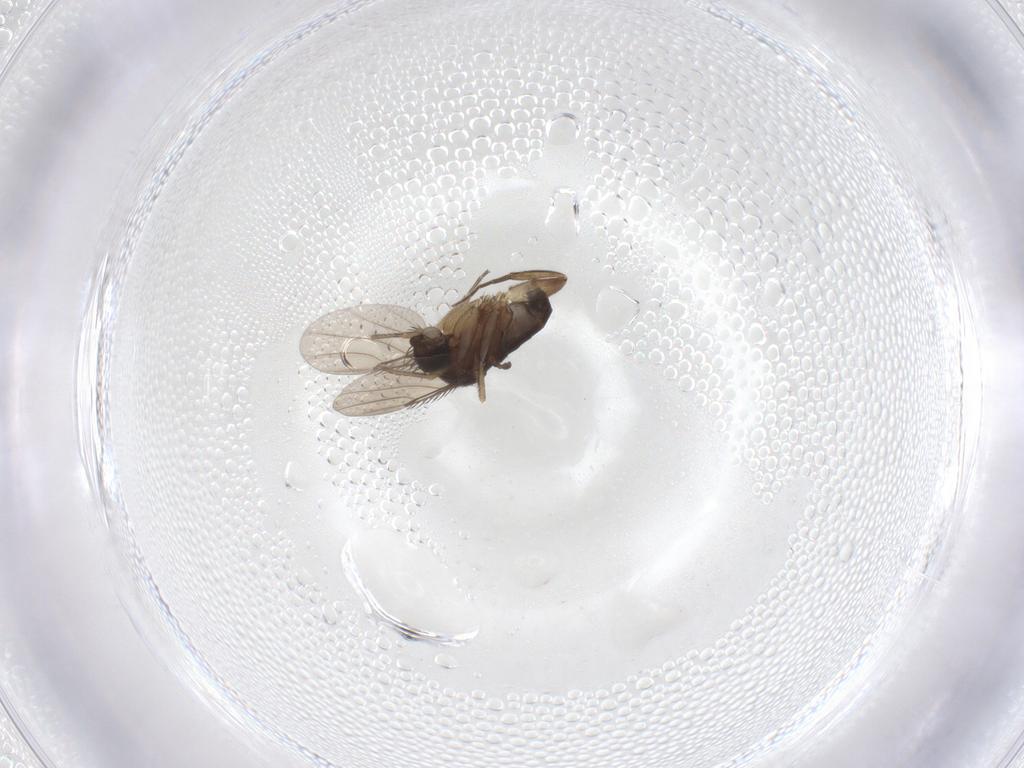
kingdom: Animalia
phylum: Arthropoda
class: Insecta
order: Diptera
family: Phoridae
